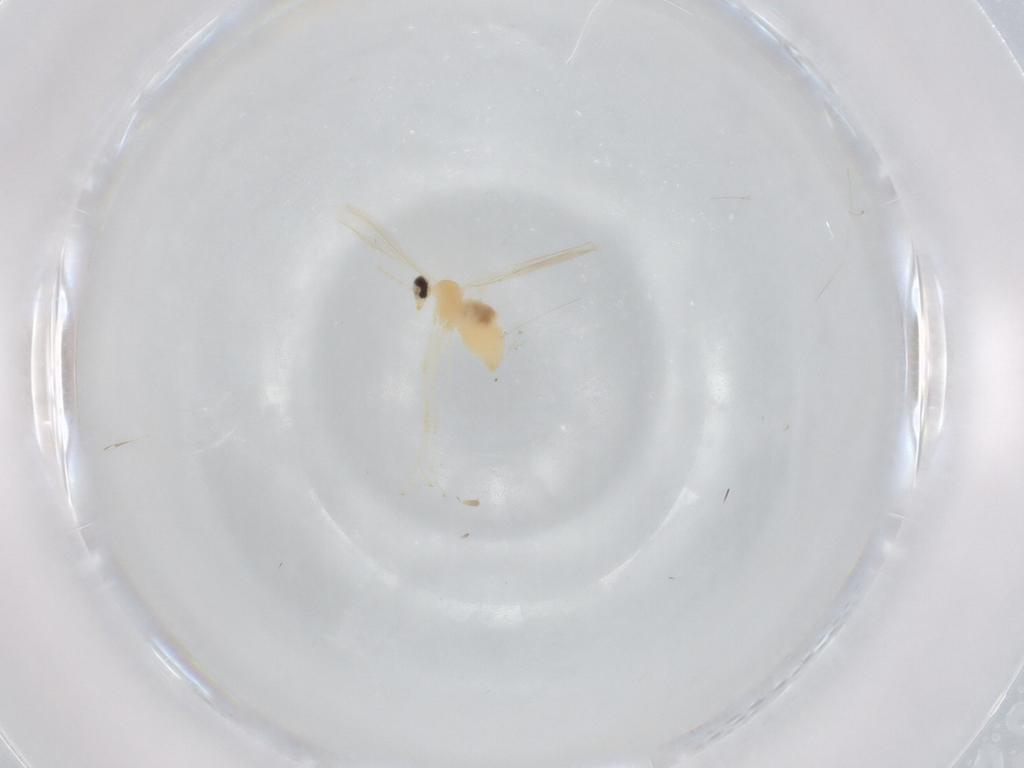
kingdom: Animalia
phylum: Arthropoda
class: Insecta
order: Diptera
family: Cecidomyiidae
